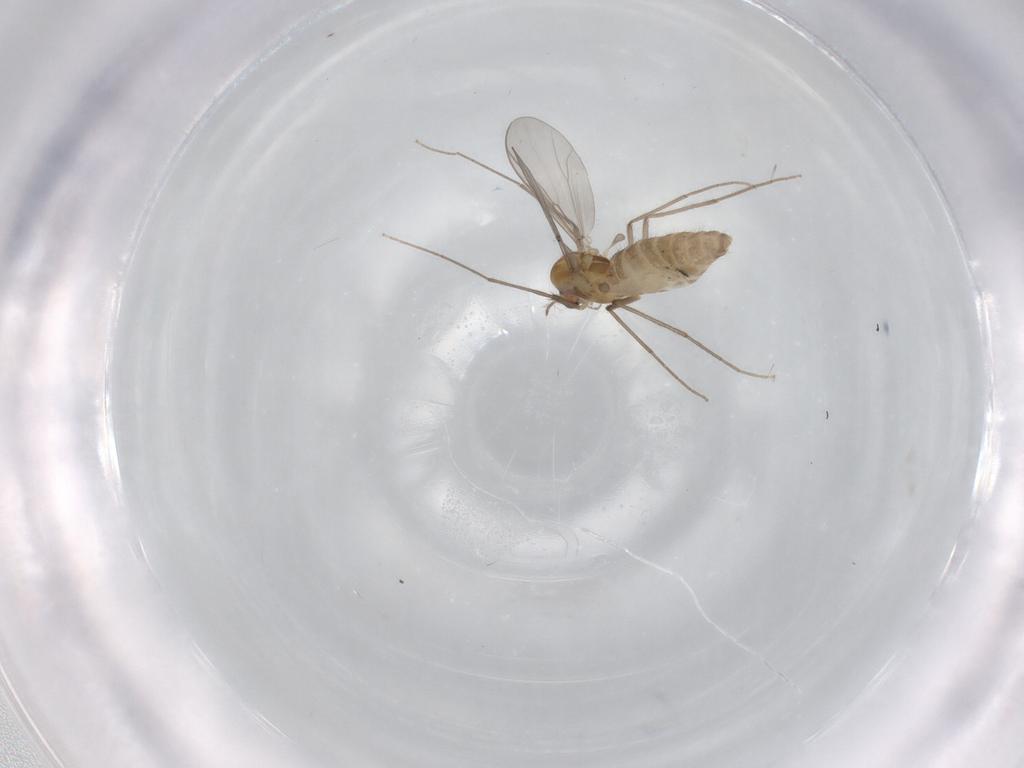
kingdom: Animalia
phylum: Arthropoda
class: Insecta
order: Diptera
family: Chironomidae
